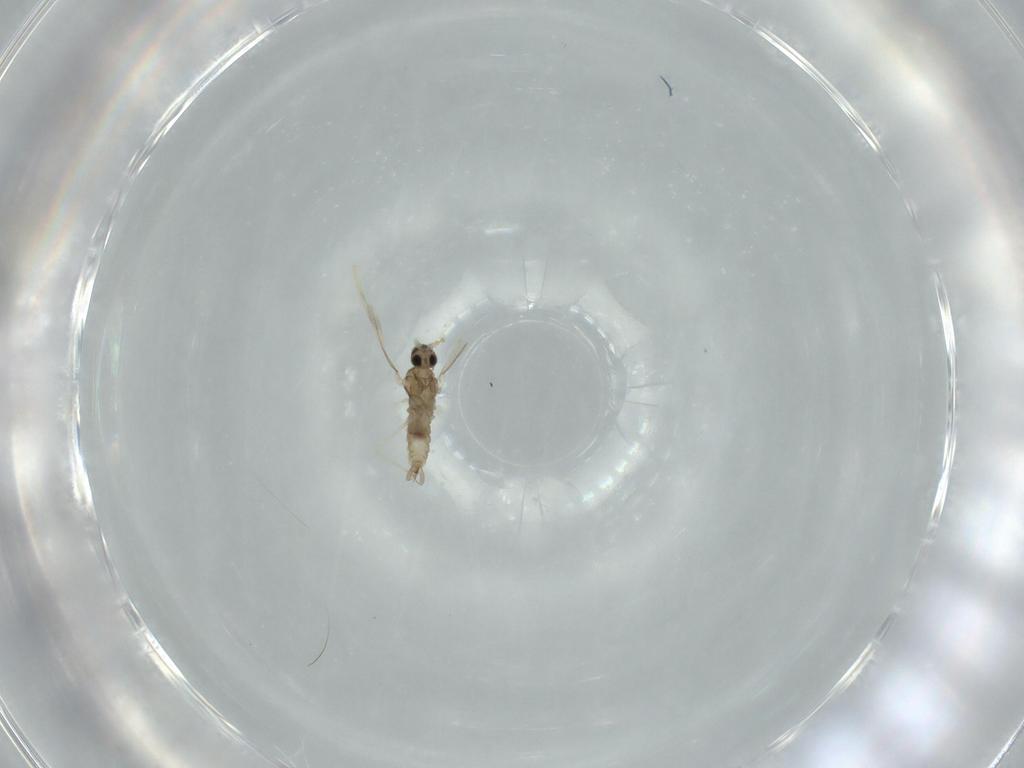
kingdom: Animalia
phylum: Arthropoda
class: Insecta
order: Diptera
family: Cecidomyiidae
